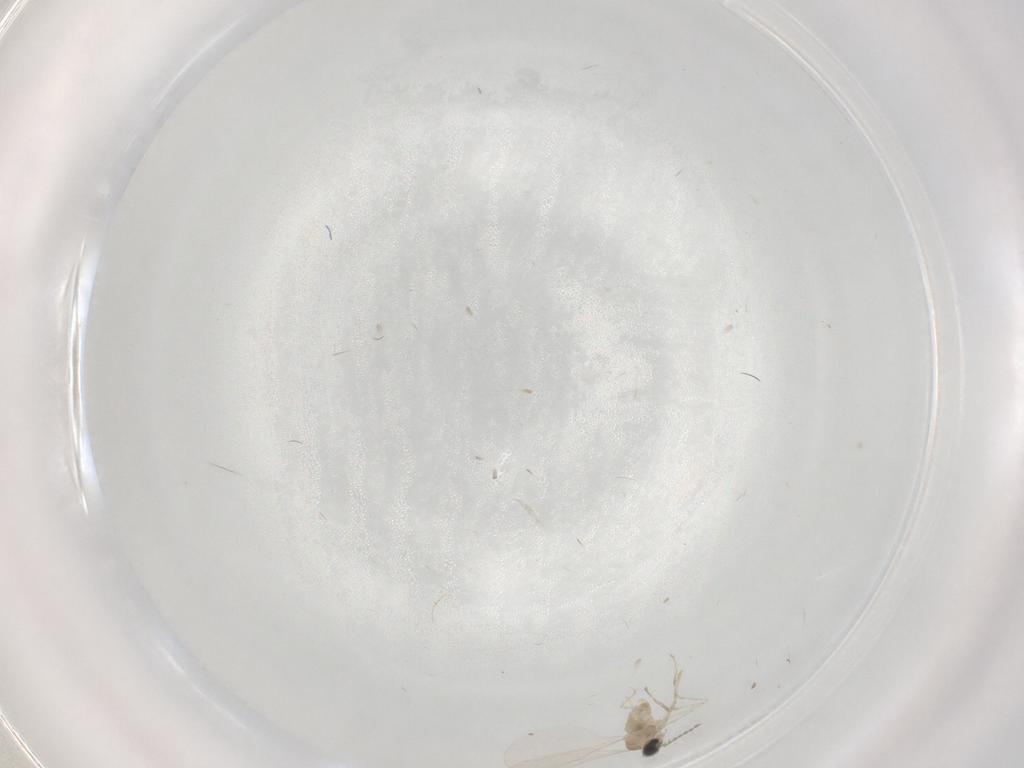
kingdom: Animalia
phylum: Arthropoda
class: Insecta
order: Diptera
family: Cecidomyiidae
